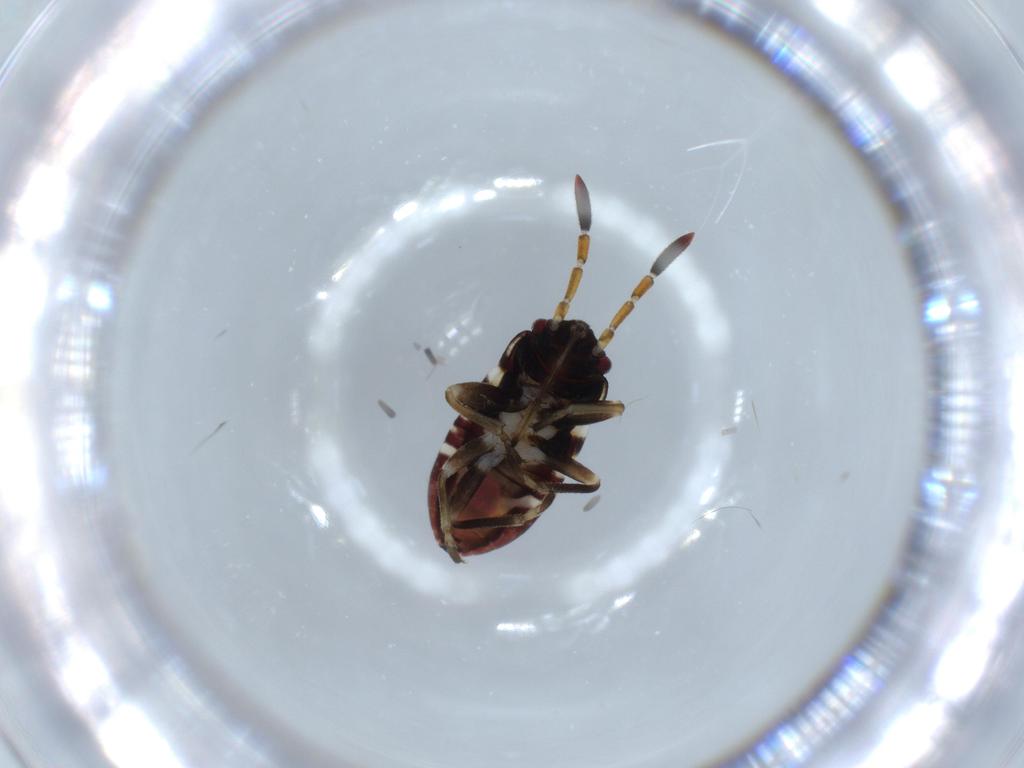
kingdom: Animalia
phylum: Arthropoda
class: Insecta
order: Hemiptera
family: Rhyparochromidae
